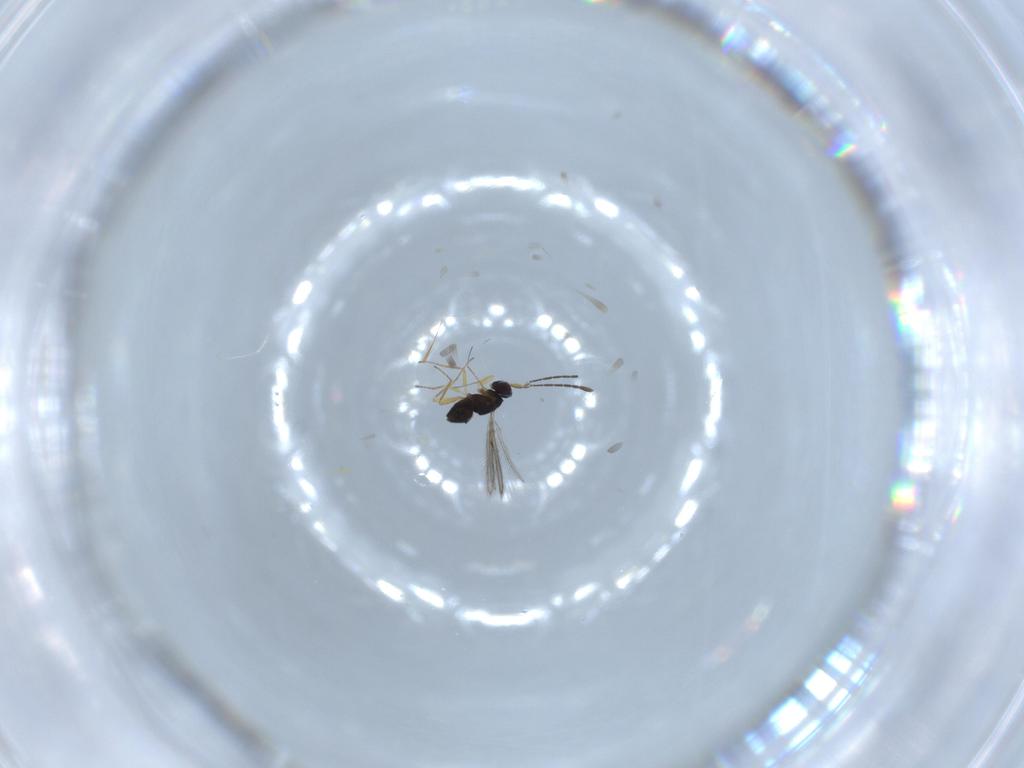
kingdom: Animalia
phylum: Arthropoda
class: Insecta
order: Hymenoptera
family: Mymaridae
